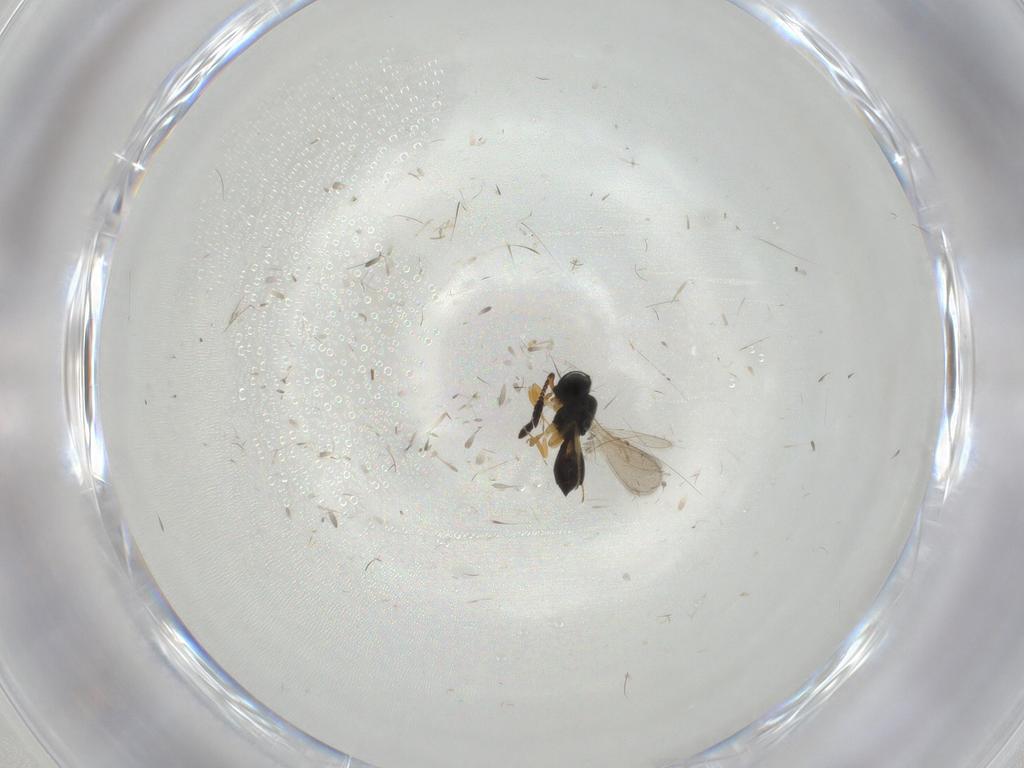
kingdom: Animalia
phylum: Arthropoda
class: Insecta
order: Hymenoptera
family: Scelionidae
